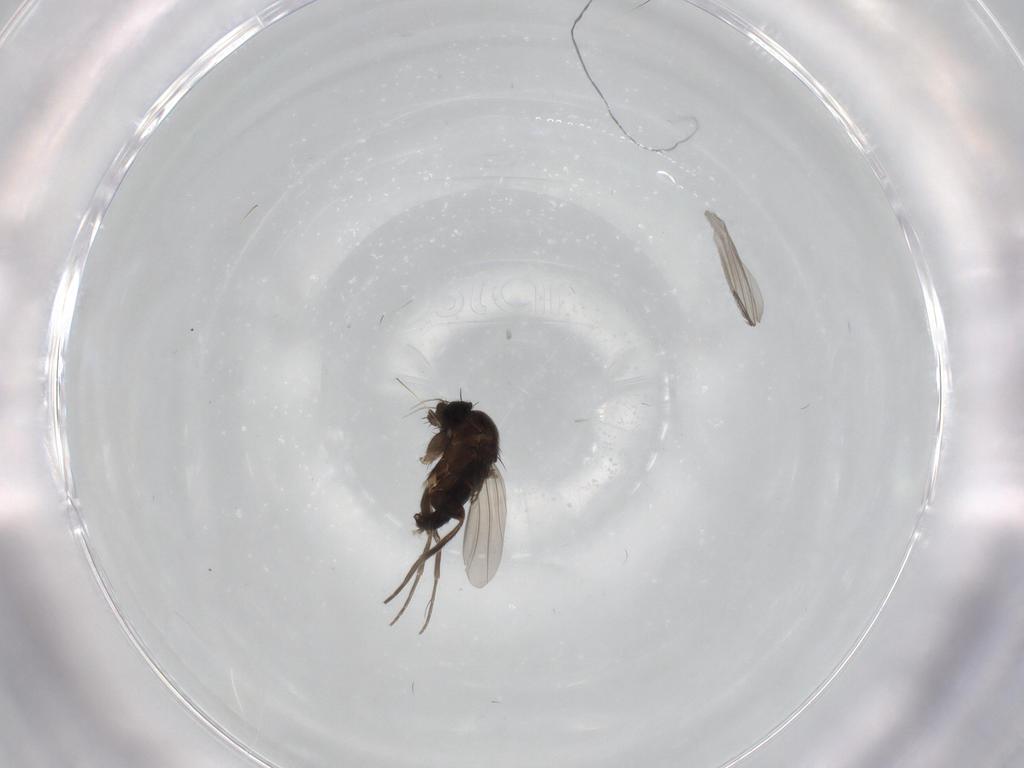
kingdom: Animalia
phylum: Arthropoda
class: Insecta
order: Diptera
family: Phoridae
